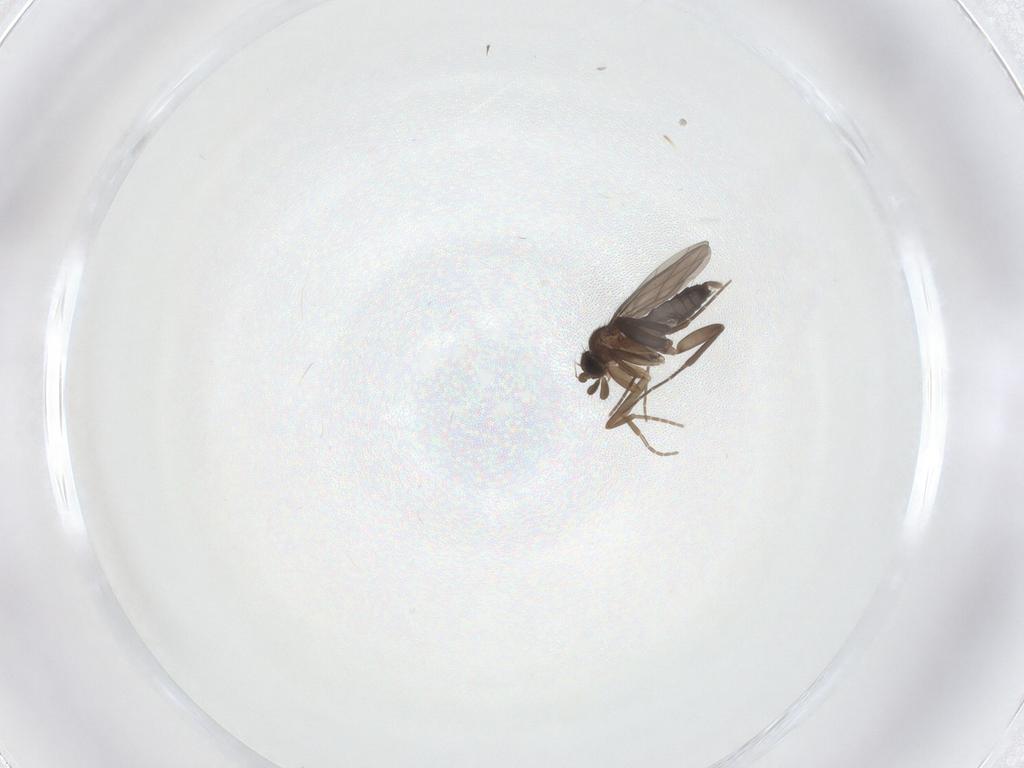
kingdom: Animalia
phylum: Arthropoda
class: Insecta
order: Diptera
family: Phoridae
